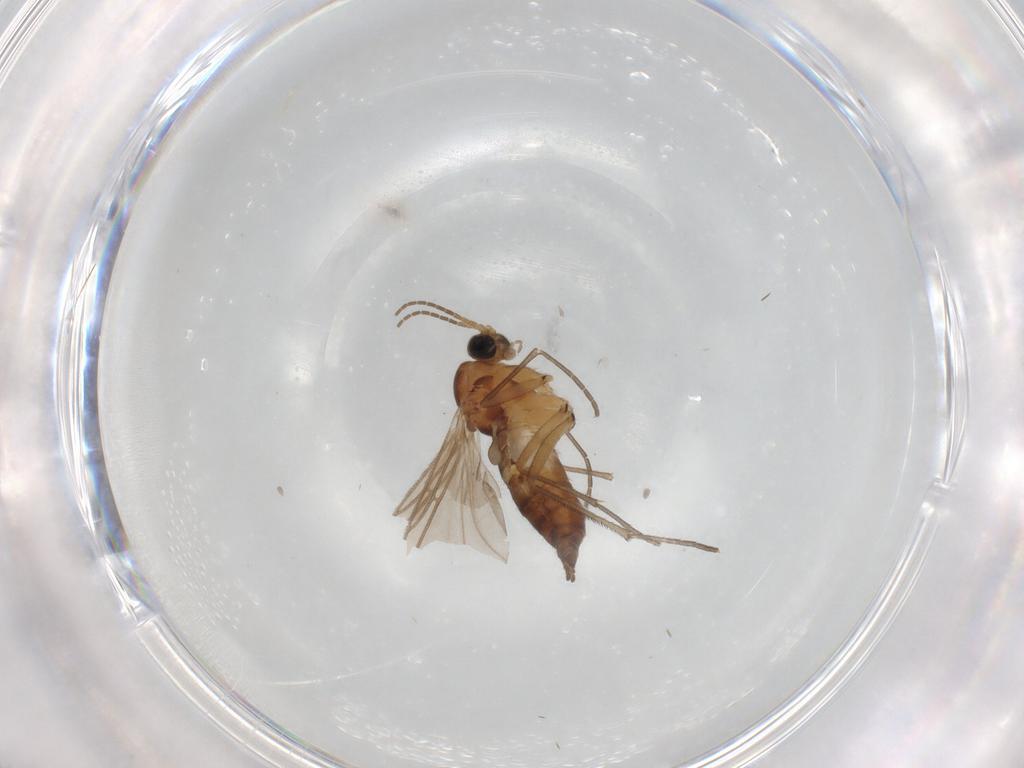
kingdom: Animalia
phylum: Arthropoda
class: Insecta
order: Diptera
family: Sciaridae
